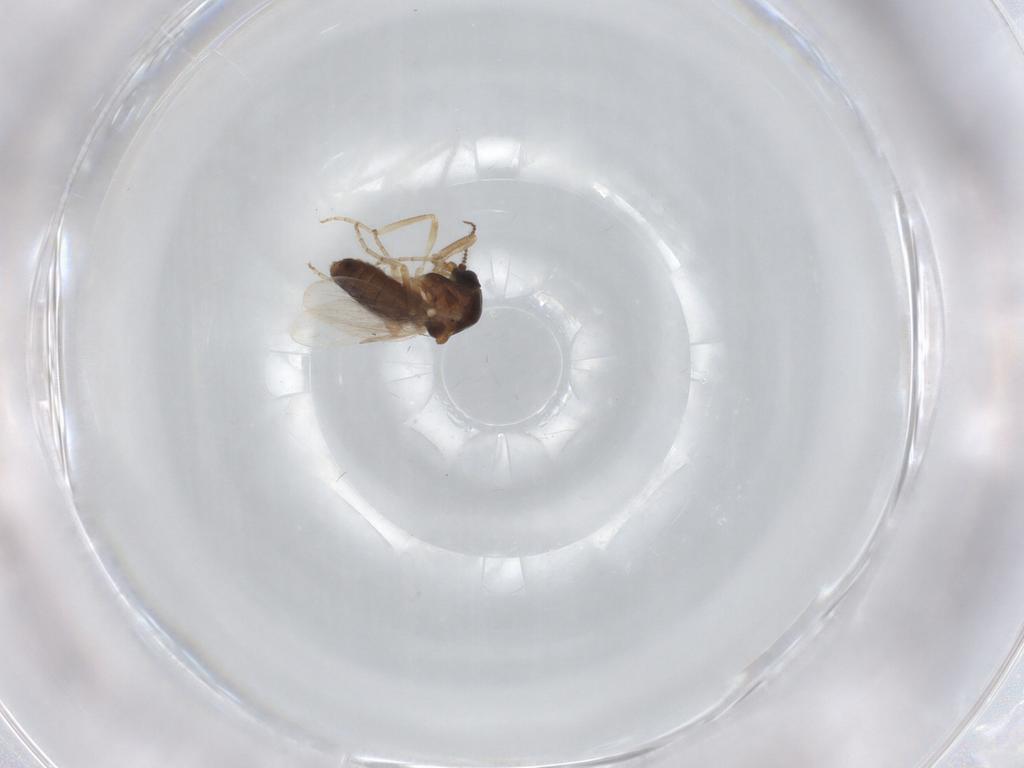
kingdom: Animalia
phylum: Arthropoda
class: Insecta
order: Diptera
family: Ceratopogonidae
